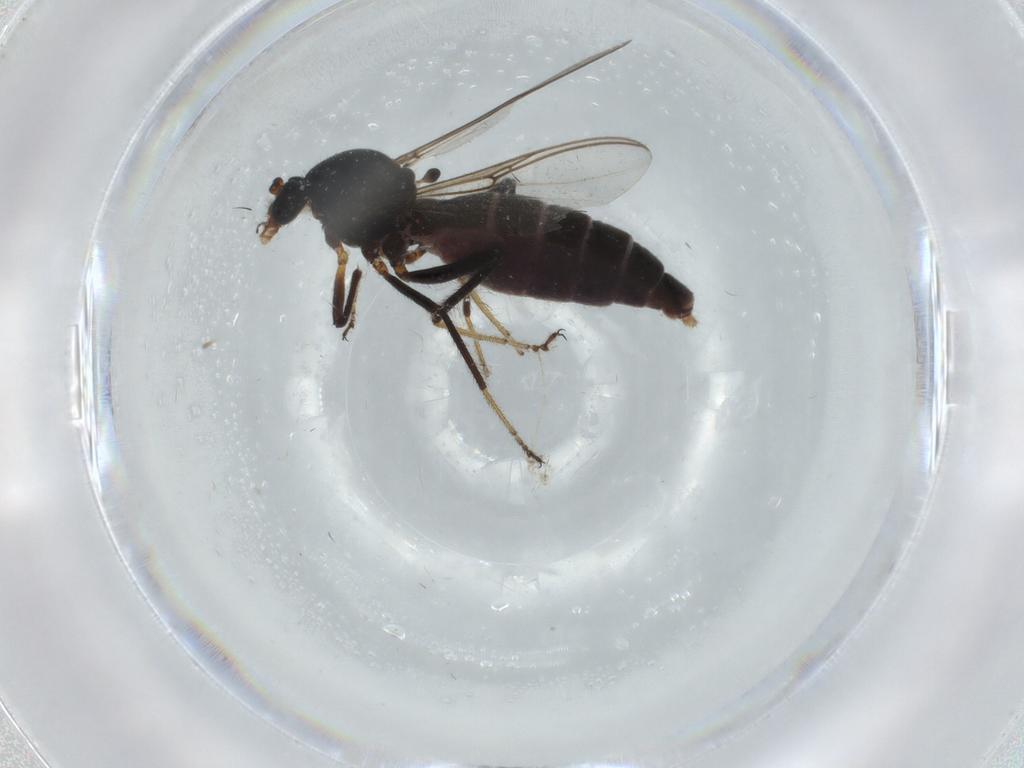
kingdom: Animalia
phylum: Arthropoda
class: Insecta
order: Diptera
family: Ceratopogonidae
